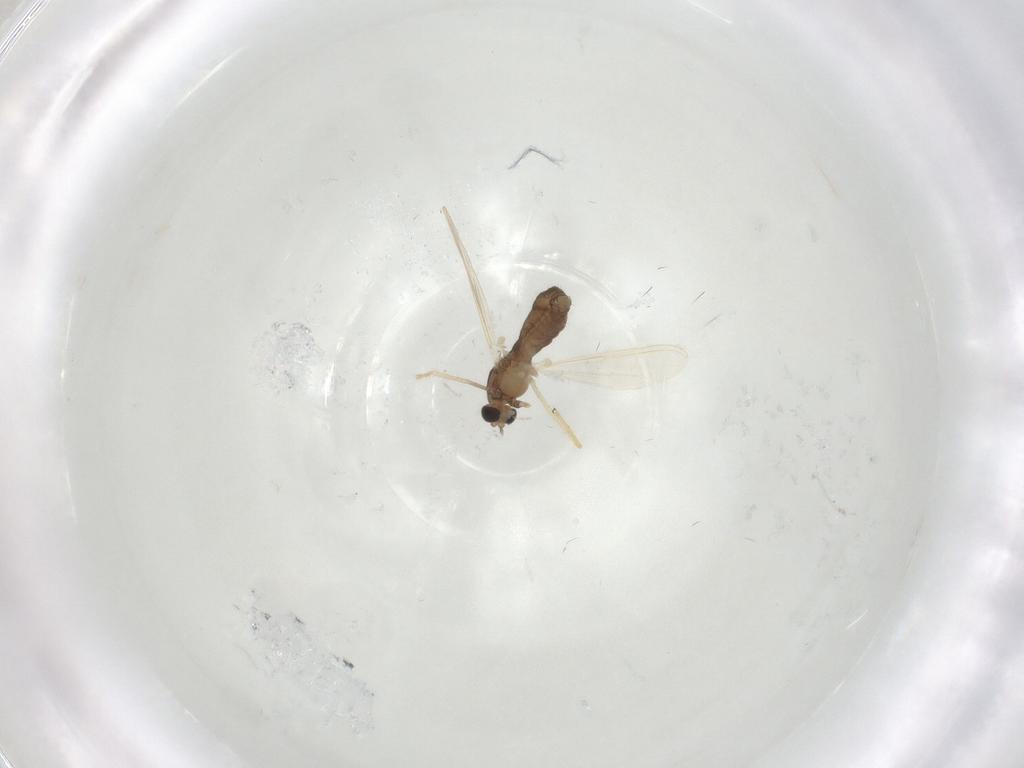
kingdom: Animalia
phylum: Arthropoda
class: Insecta
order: Diptera
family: Chironomidae
